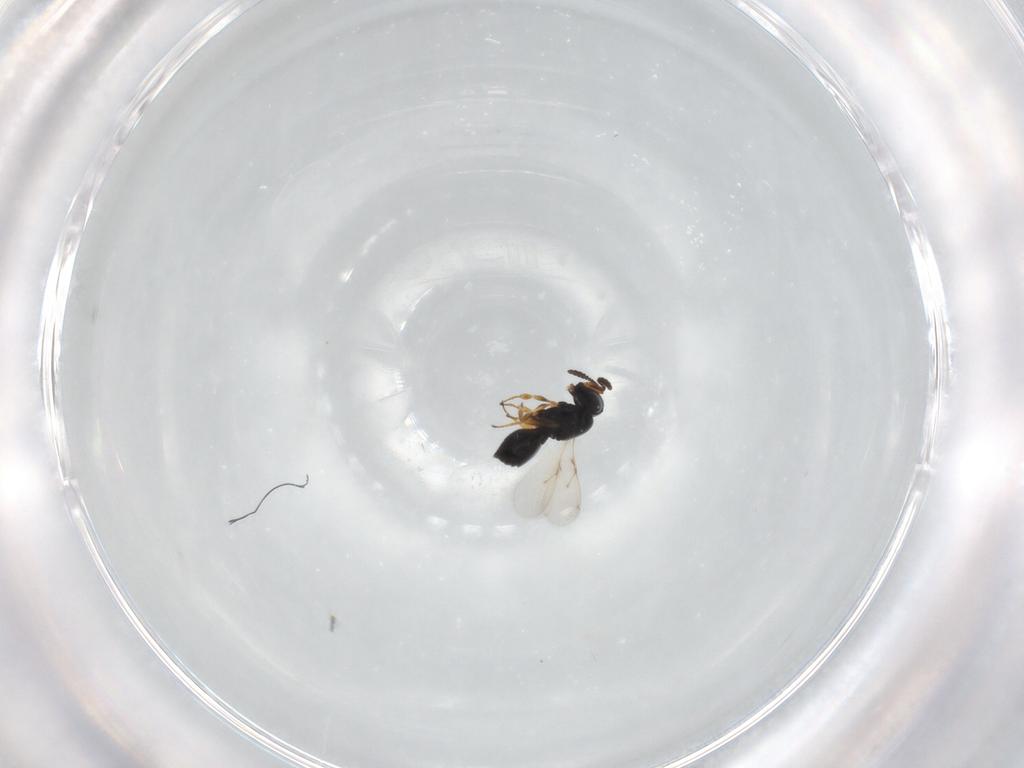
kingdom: Animalia
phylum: Arthropoda
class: Insecta
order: Hymenoptera
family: Scelionidae
